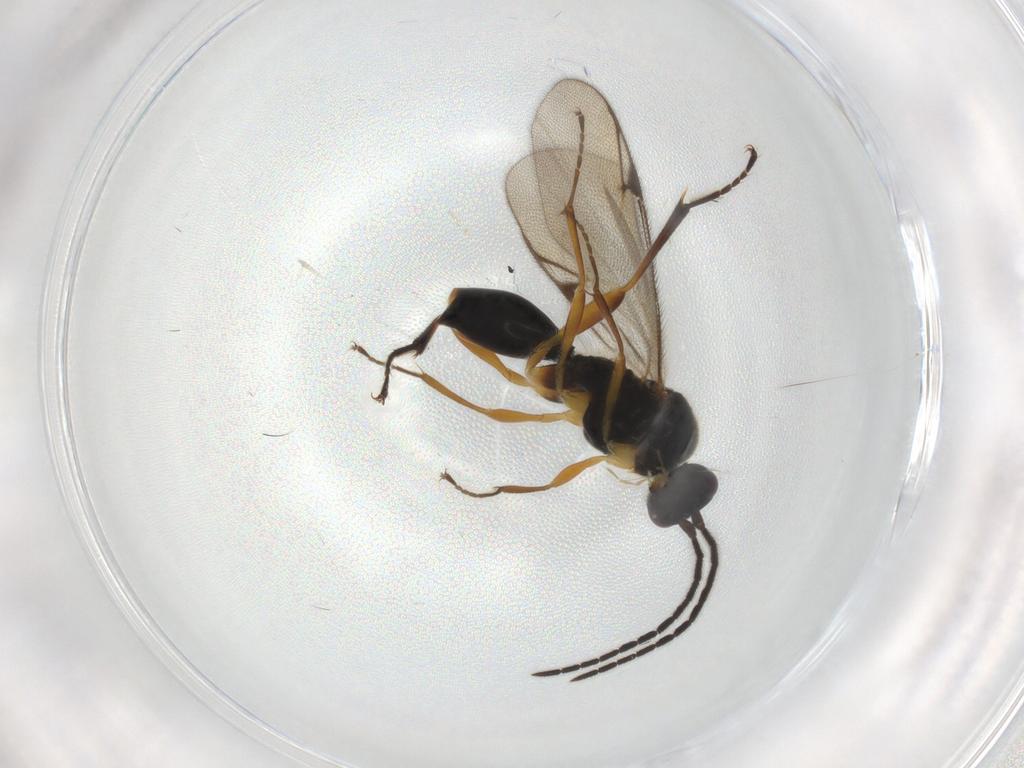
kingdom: Animalia
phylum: Arthropoda
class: Insecta
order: Hymenoptera
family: Proctotrupidae
